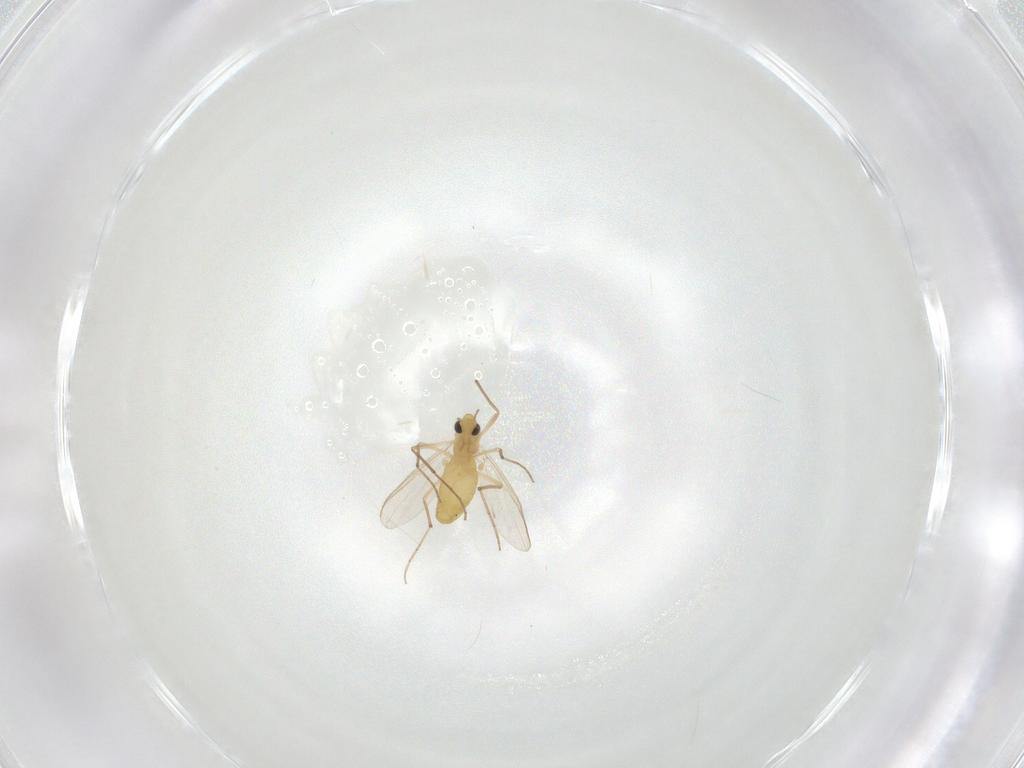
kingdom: Animalia
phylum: Arthropoda
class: Insecta
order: Diptera
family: Chironomidae
